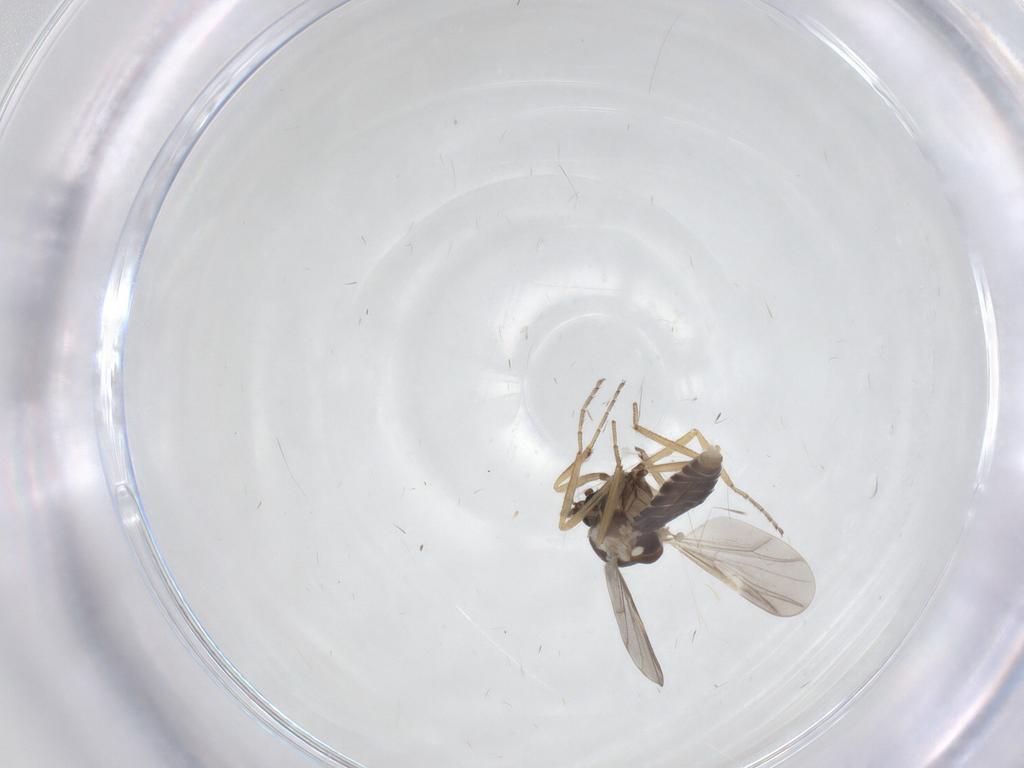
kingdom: Animalia
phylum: Arthropoda
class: Insecta
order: Diptera
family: Ceratopogonidae
